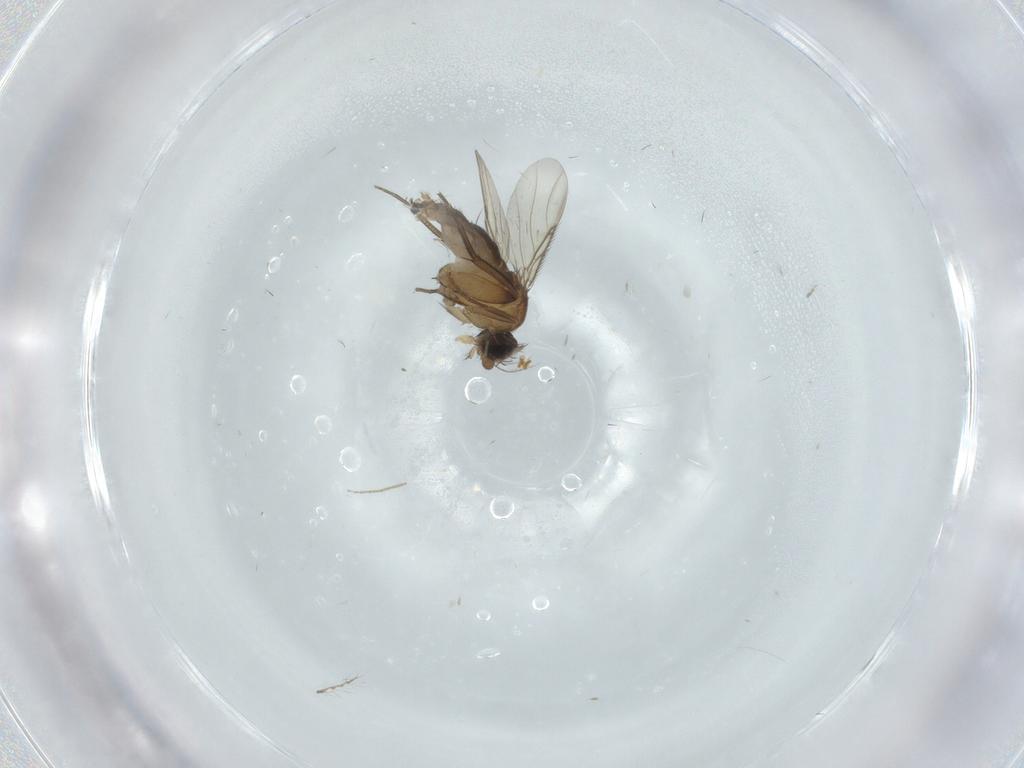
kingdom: Animalia
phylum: Arthropoda
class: Insecta
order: Diptera
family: Phoridae
